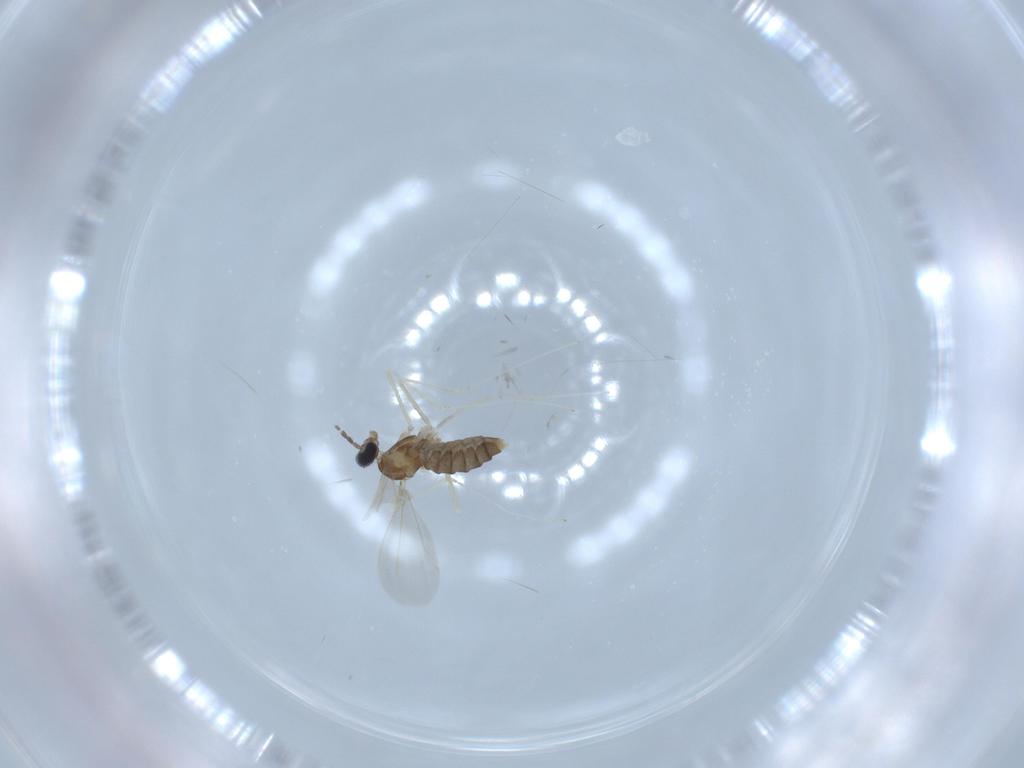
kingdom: Animalia
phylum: Arthropoda
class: Insecta
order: Diptera
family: Cecidomyiidae
